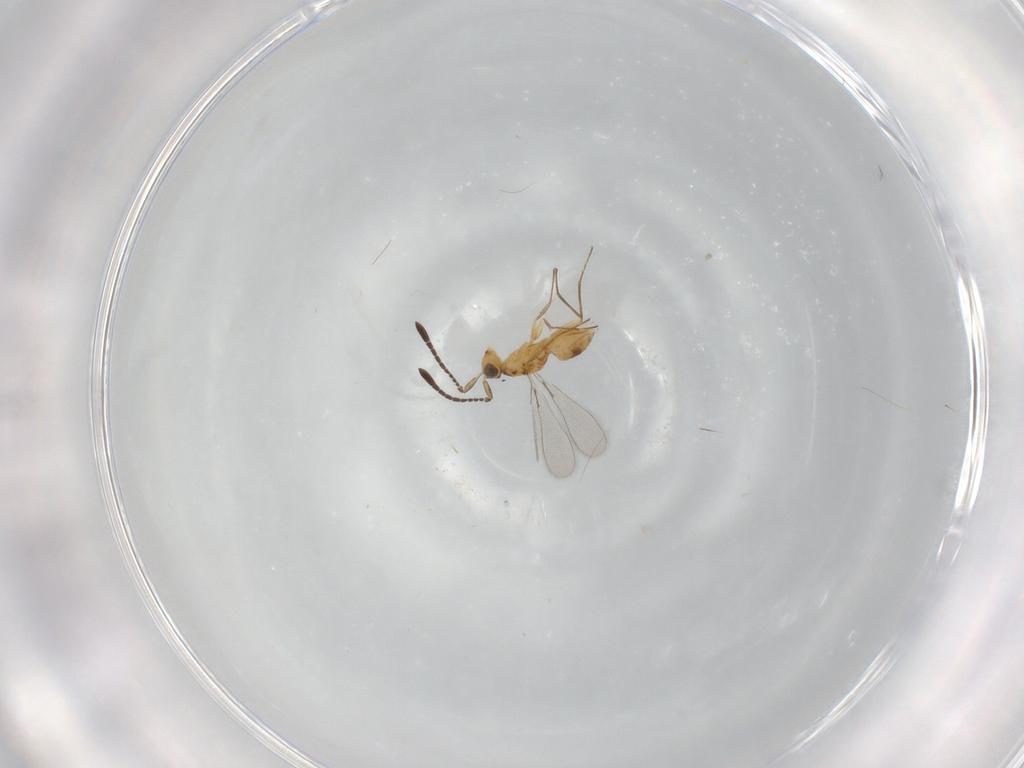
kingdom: Animalia
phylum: Arthropoda
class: Insecta
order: Hymenoptera
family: Mymaridae
